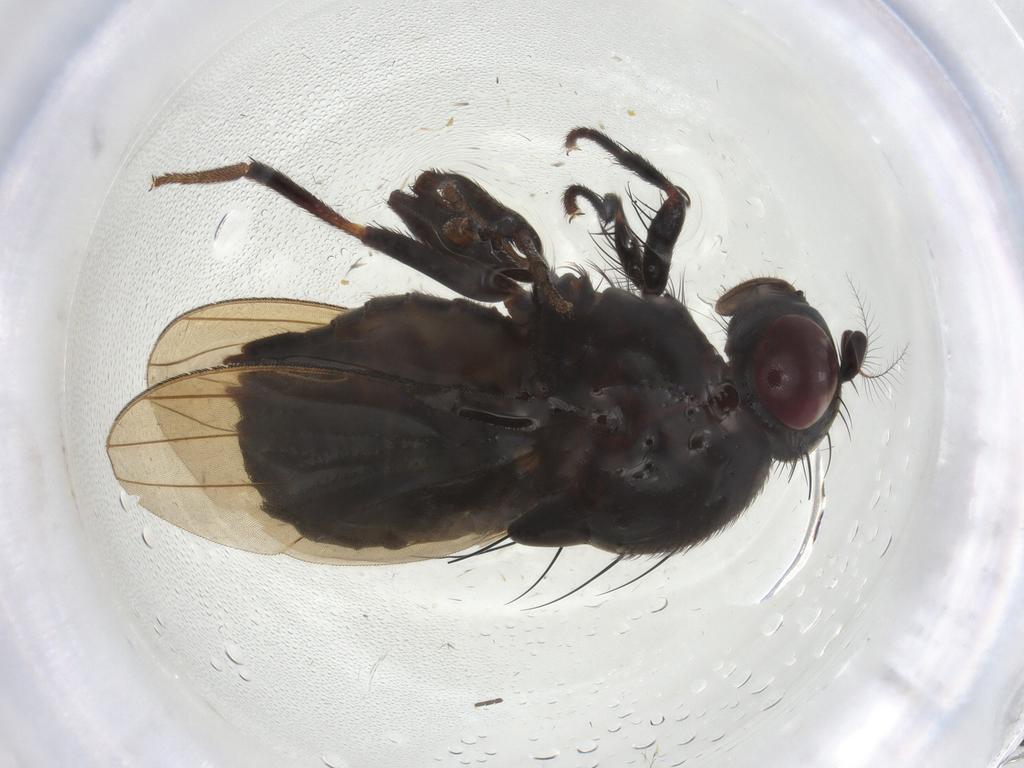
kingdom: Animalia
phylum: Arthropoda
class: Insecta
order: Diptera
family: Lauxaniidae
